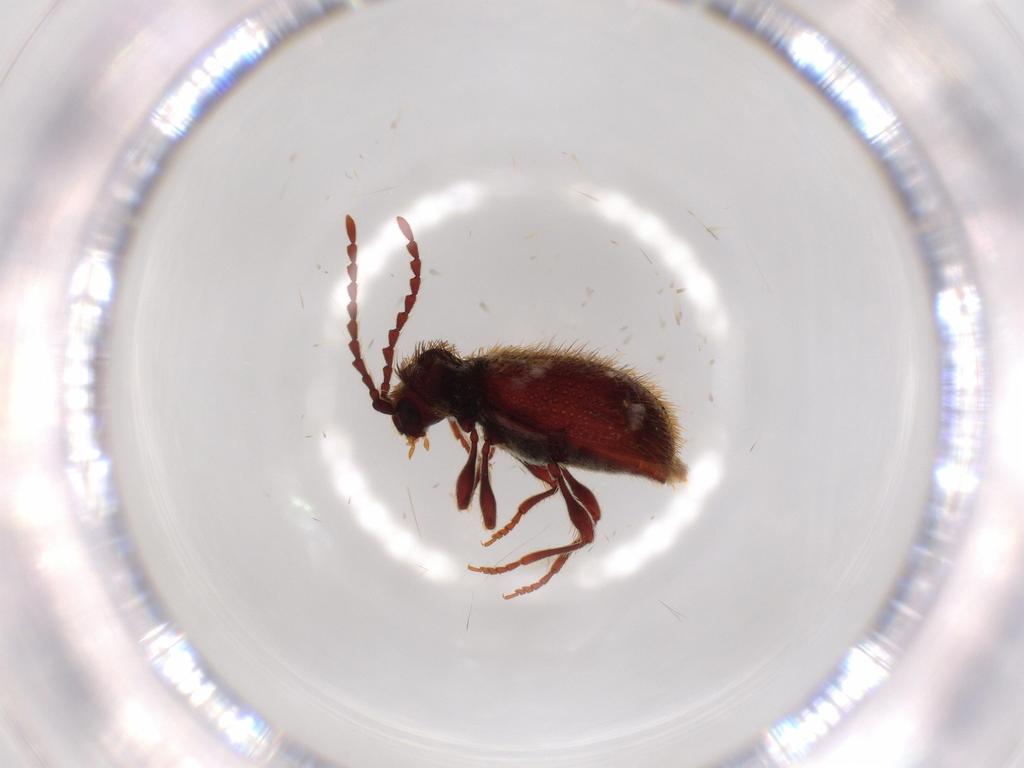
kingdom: Animalia
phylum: Arthropoda
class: Insecta
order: Coleoptera
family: Ptinidae
